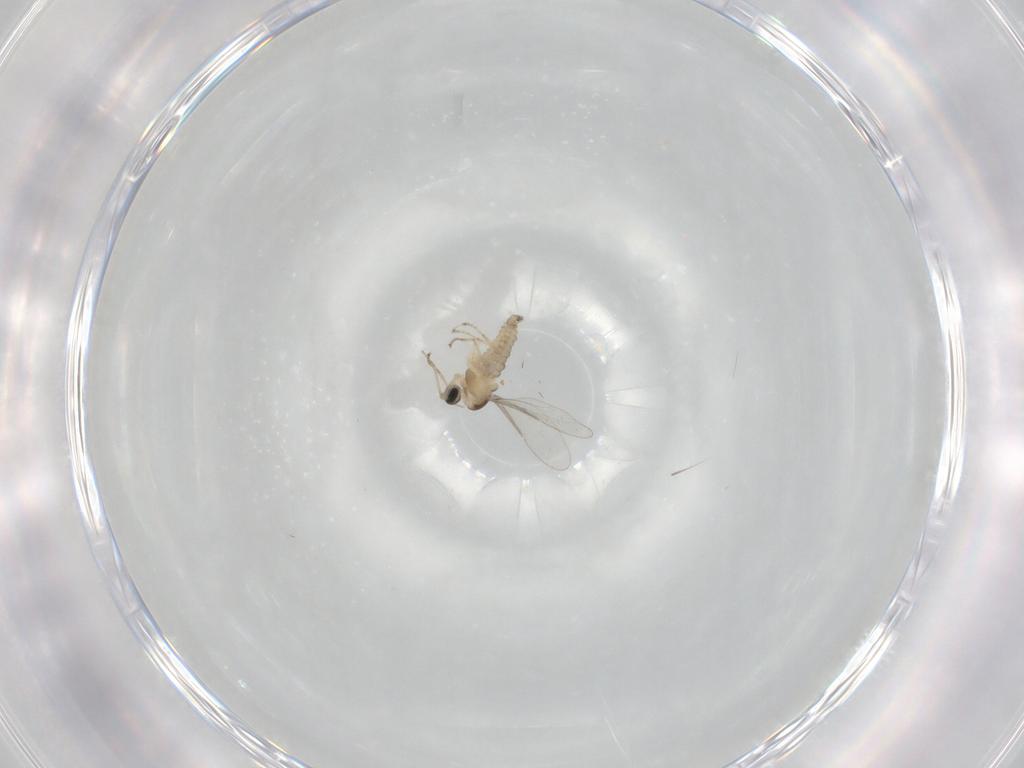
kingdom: Animalia
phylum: Arthropoda
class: Insecta
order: Diptera
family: Cecidomyiidae
